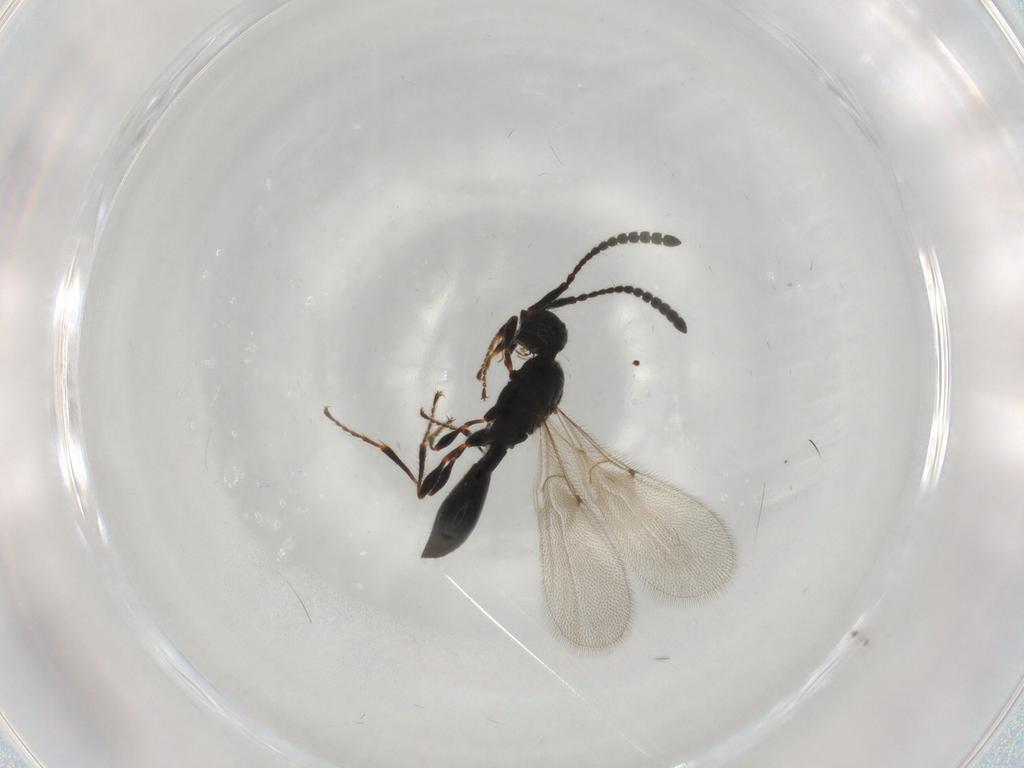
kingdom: Animalia
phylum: Arthropoda
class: Insecta
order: Hymenoptera
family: Diapriidae
